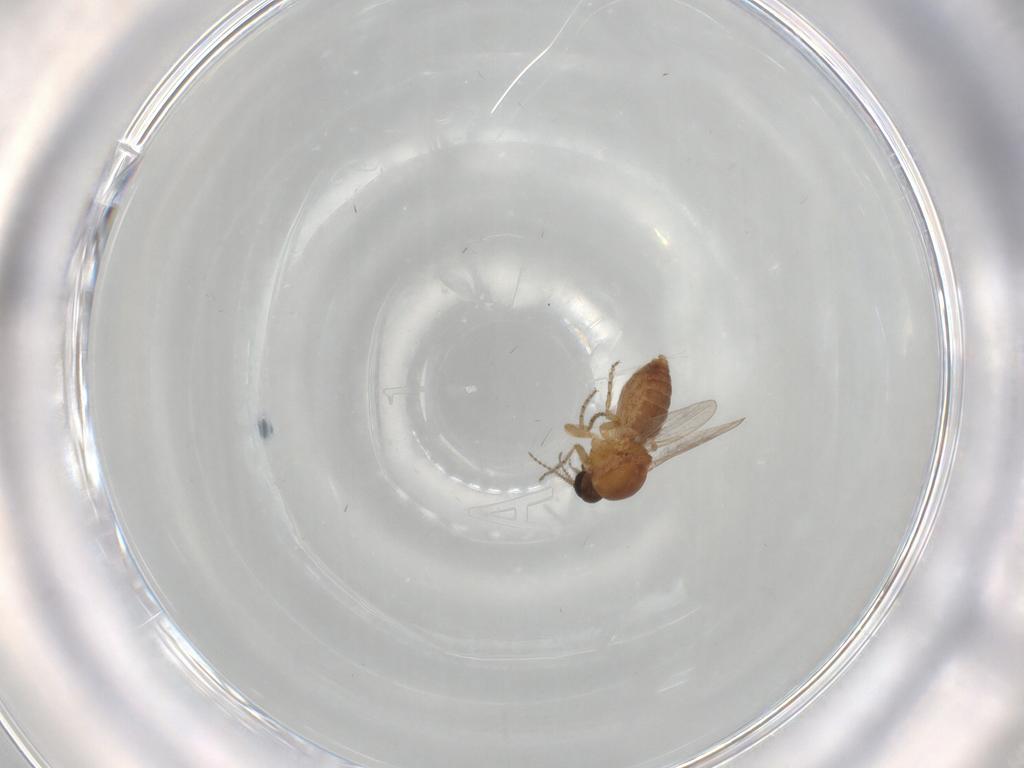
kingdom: Animalia
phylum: Arthropoda
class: Insecta
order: Diptera
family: Ceratopogonidae
